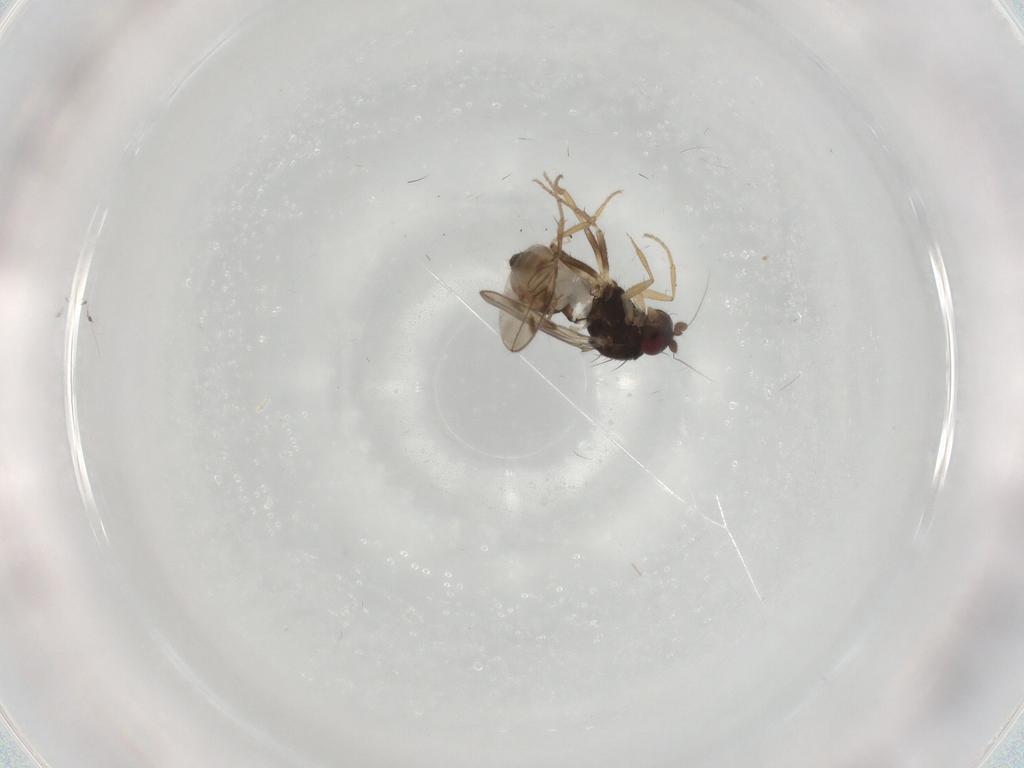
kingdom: Animalia
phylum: Arthropoda
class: Insecta
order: Diptera
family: Sphaeroceridae
